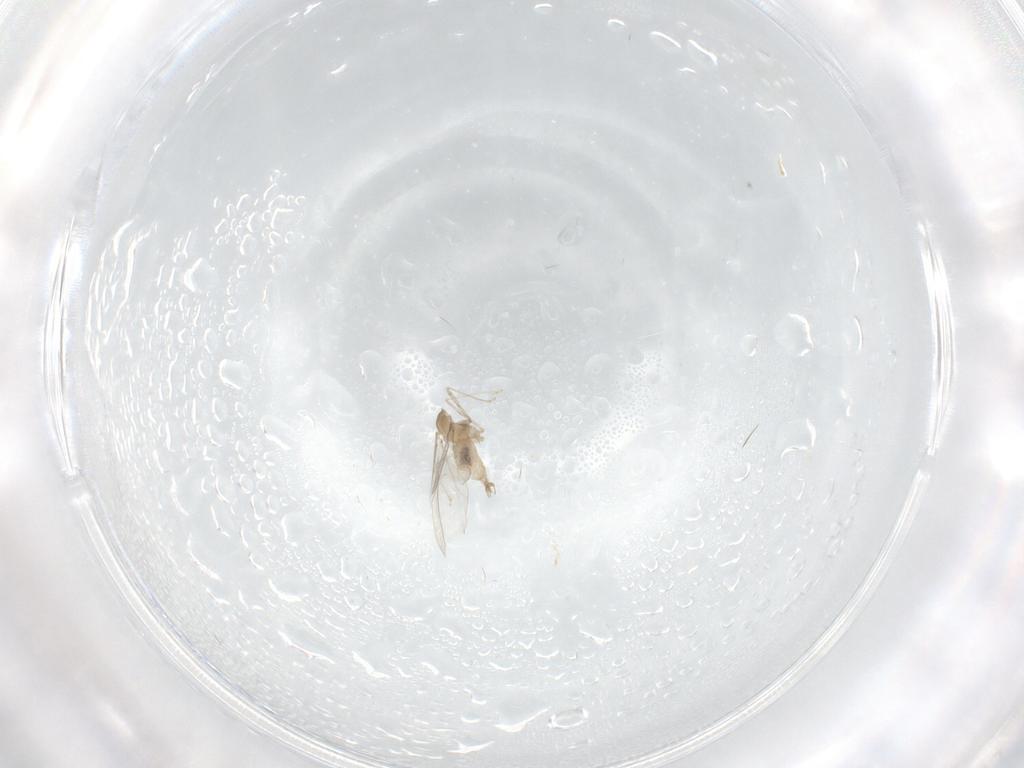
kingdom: Animalia
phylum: Arthropoda
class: Insecta
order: Diptera
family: Cecidomyiidae
